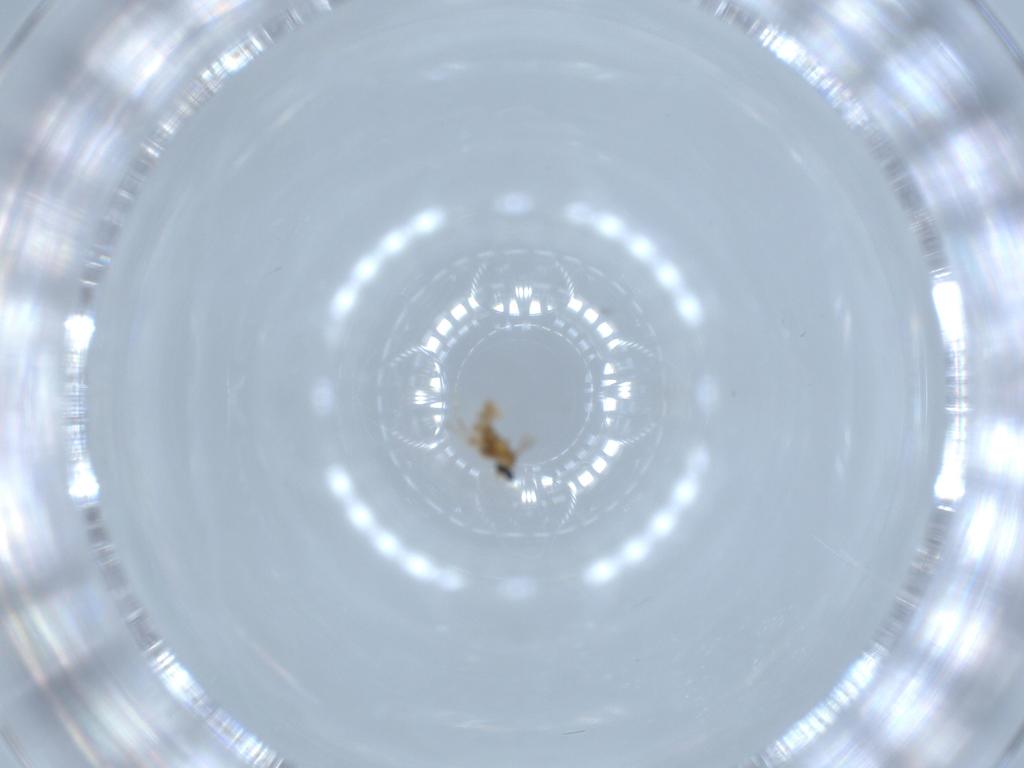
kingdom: Animalia
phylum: Arthropoda
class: Insecta
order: Diptera
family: Cecidomyiidae
